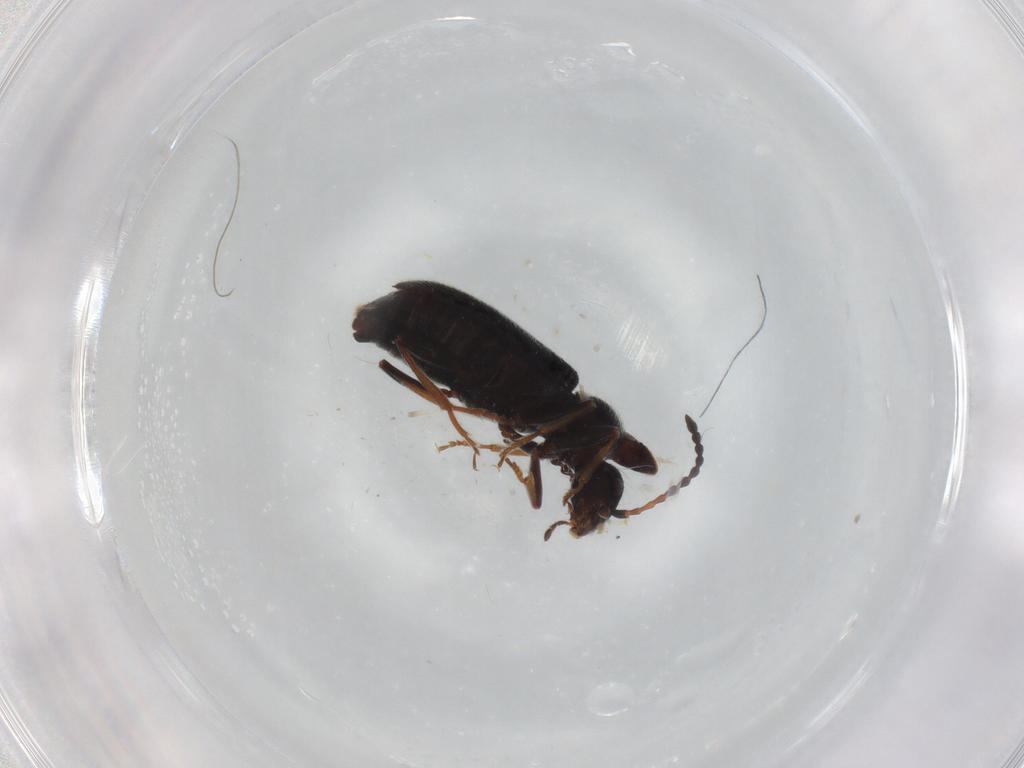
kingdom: Animalia
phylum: Arthropoda
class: Insecta
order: Coleoptera
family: Anthicidae
